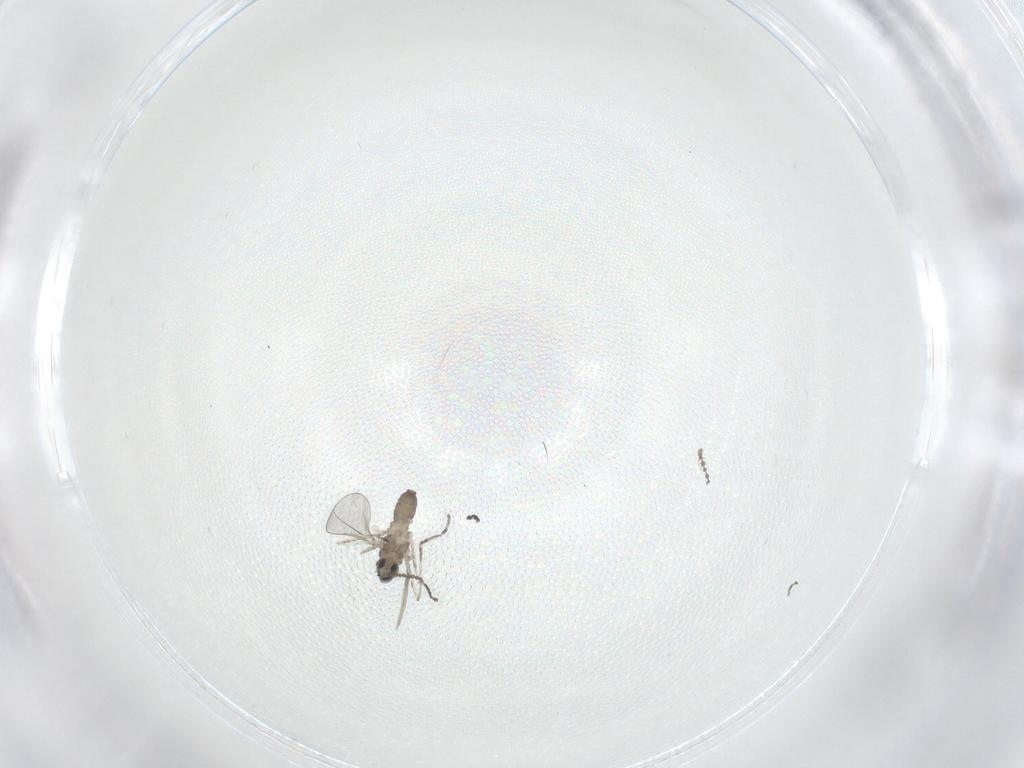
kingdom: Animalia
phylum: Arthropoda
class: Insecta
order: Diptera
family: Cecidomyiidae
